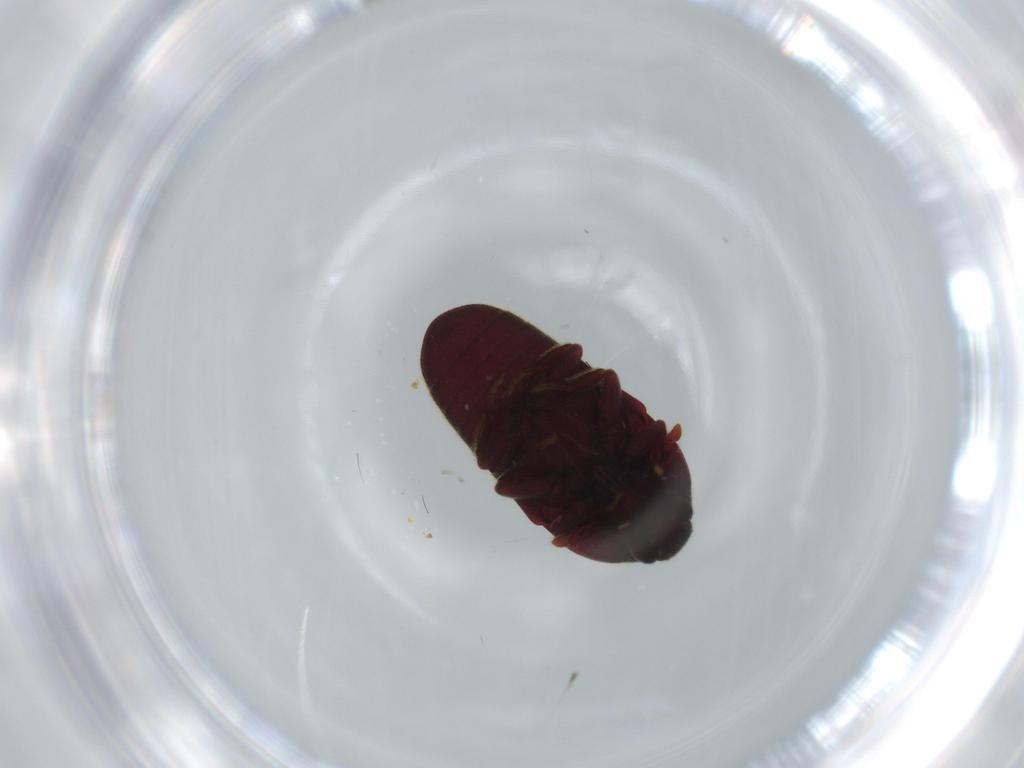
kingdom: Animalia
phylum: Arthropoda
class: Insecta
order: Coleoptera
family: Throscidae
